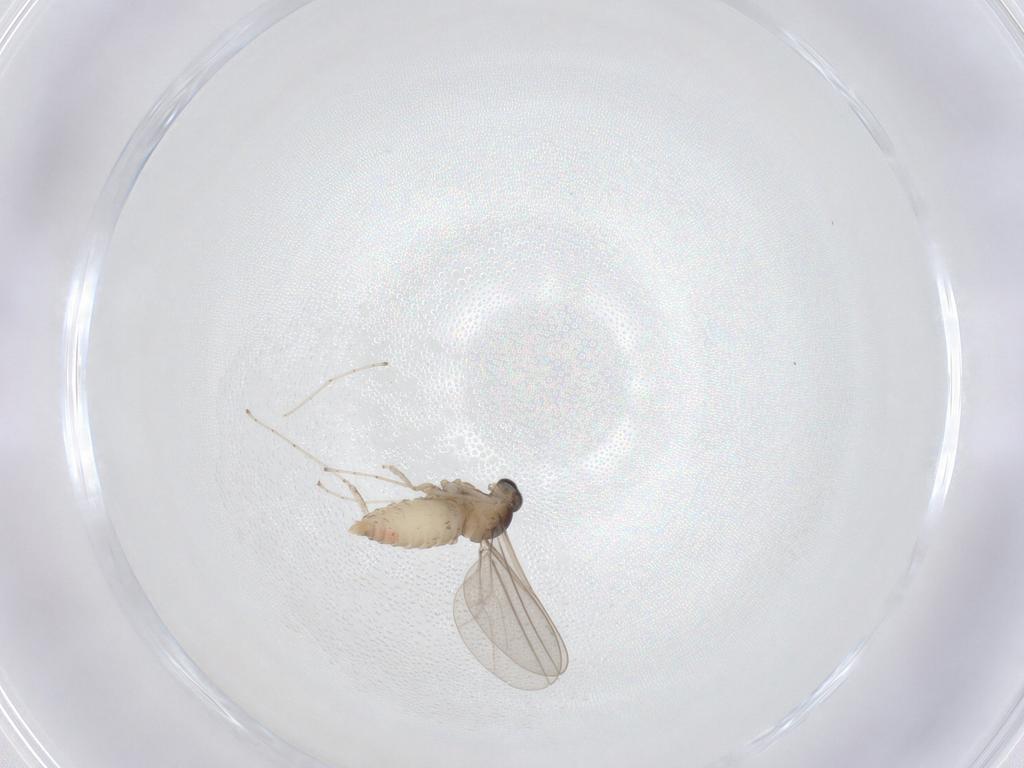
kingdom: Animalia
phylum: Arthropoda
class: Insecta
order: Diptera
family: Cecidomyiidae
